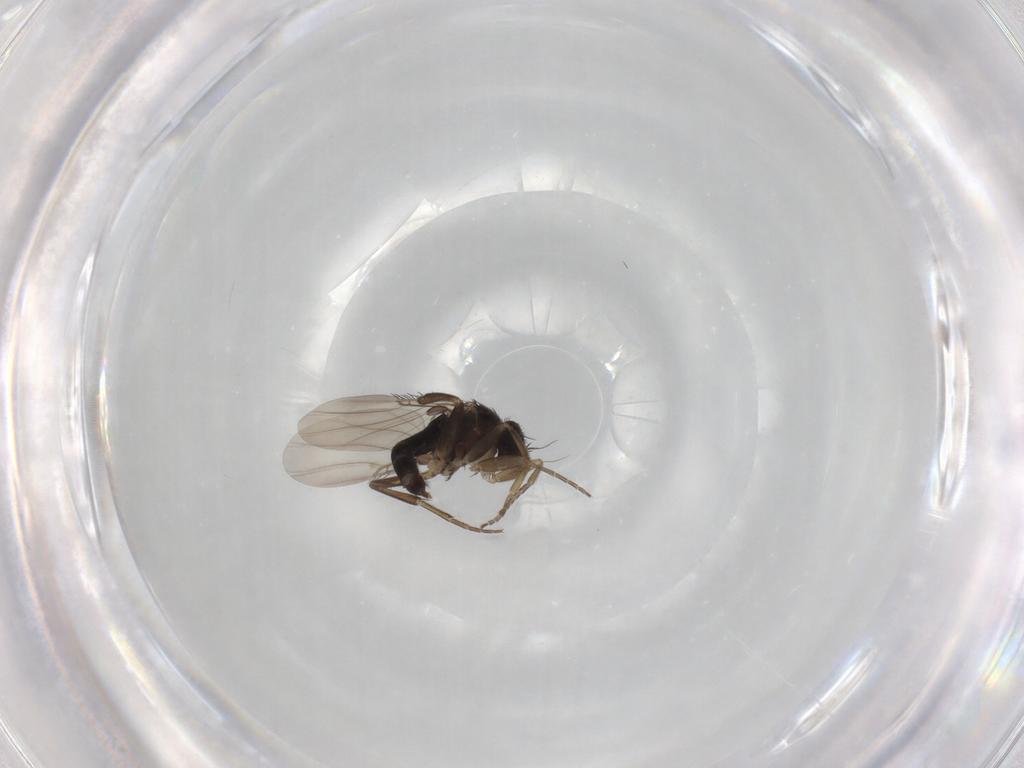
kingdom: Animalia
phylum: Arthropoda
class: Insecta
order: Diptera
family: Phoridae
